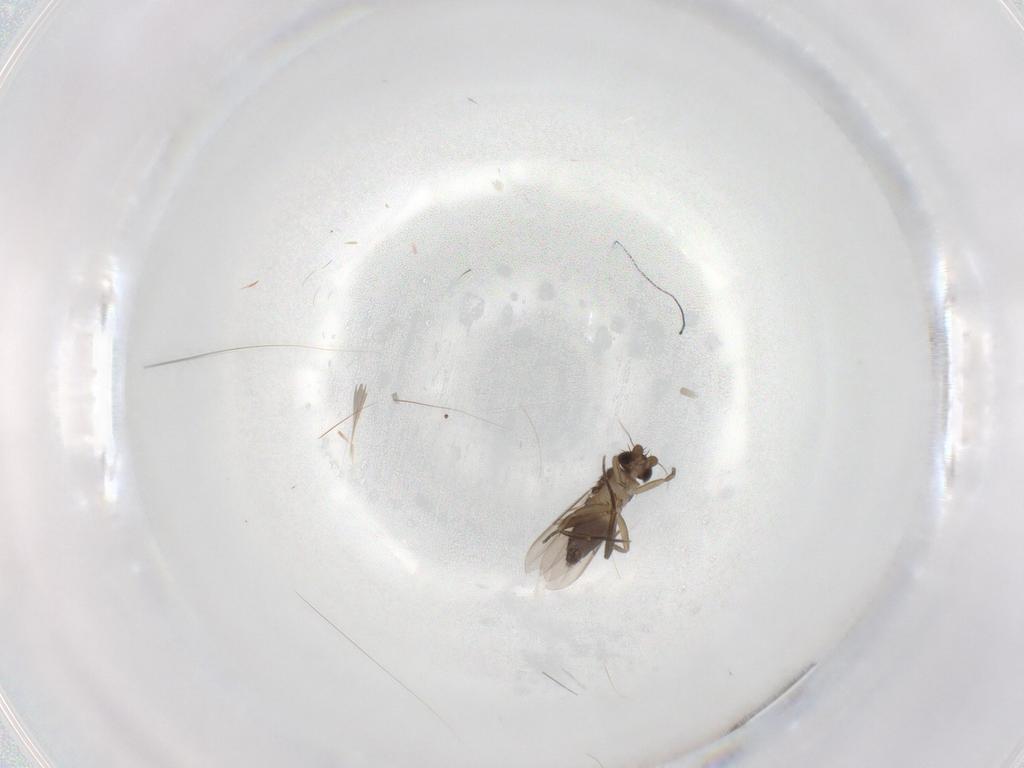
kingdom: Animalia
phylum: Arthropoda
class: Insecta
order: Diptera
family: Phoridae
